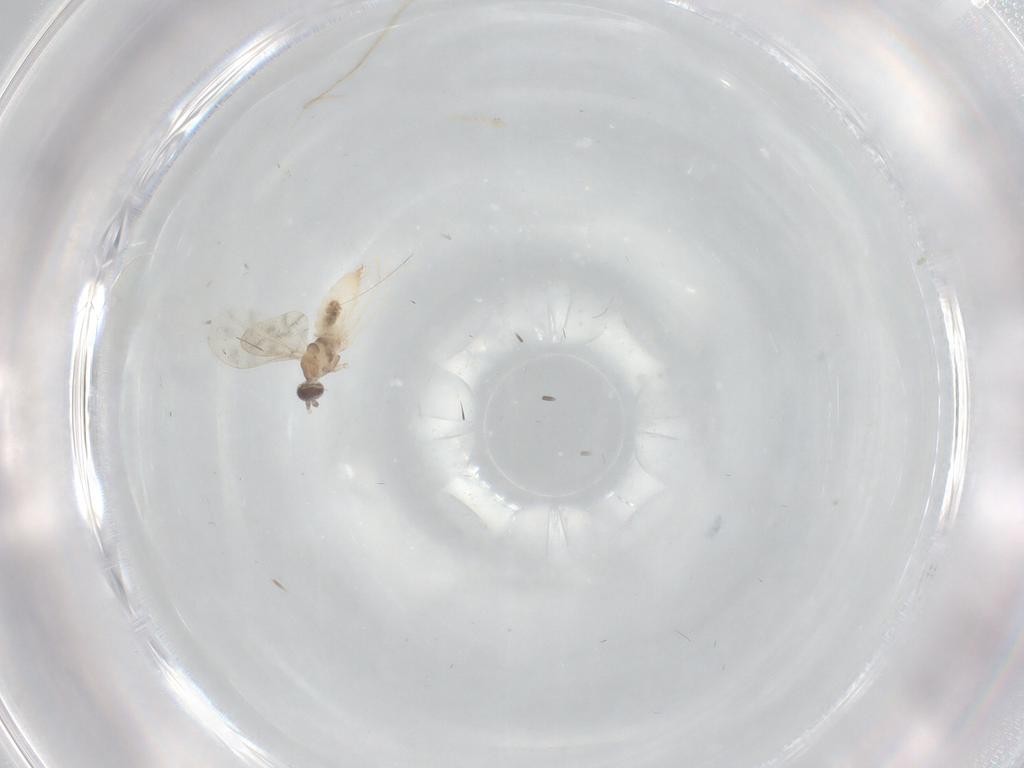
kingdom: Animalia
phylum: Arthropoda
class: Insecta
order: Diptera
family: Cecidomyiidae
